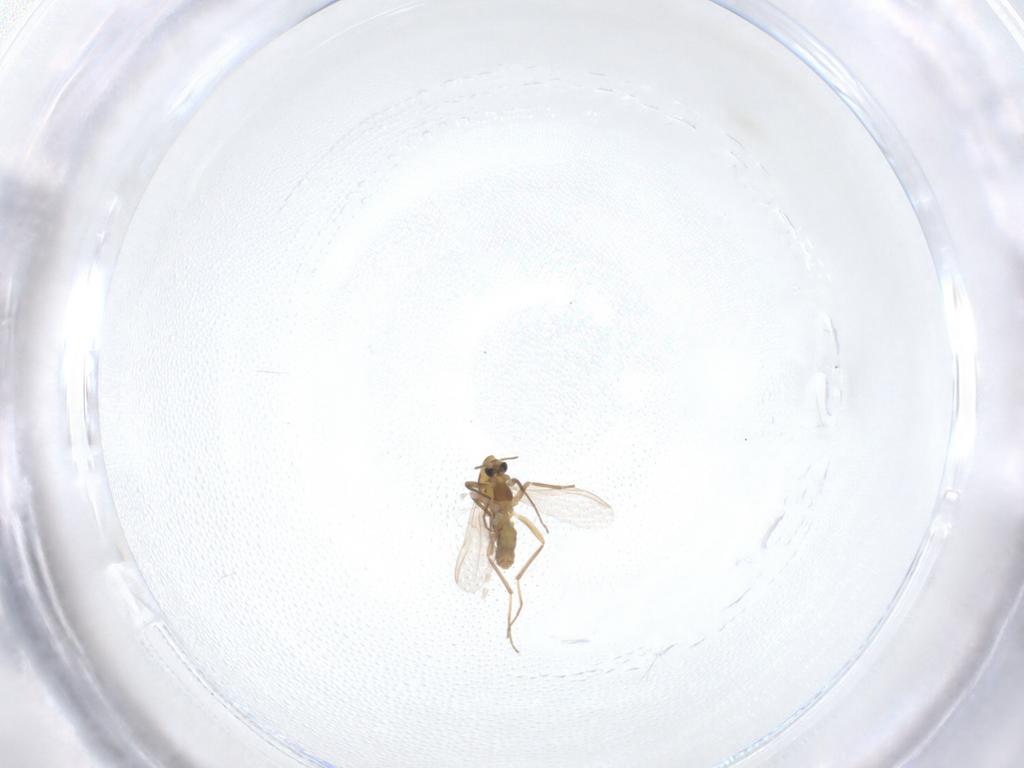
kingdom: Animalia
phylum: Arthropoda
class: Insecta
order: Diptera
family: Chironomidae
